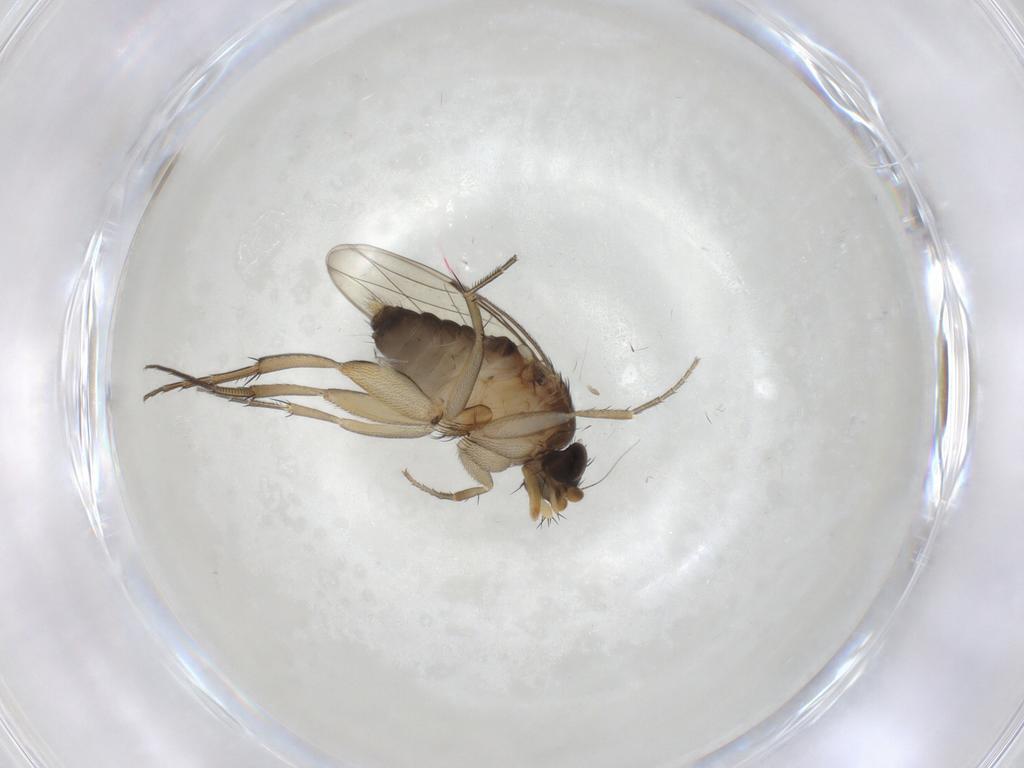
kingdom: Animalia
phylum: Arthropoda
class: Insecta
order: Diptera
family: Phoridae
